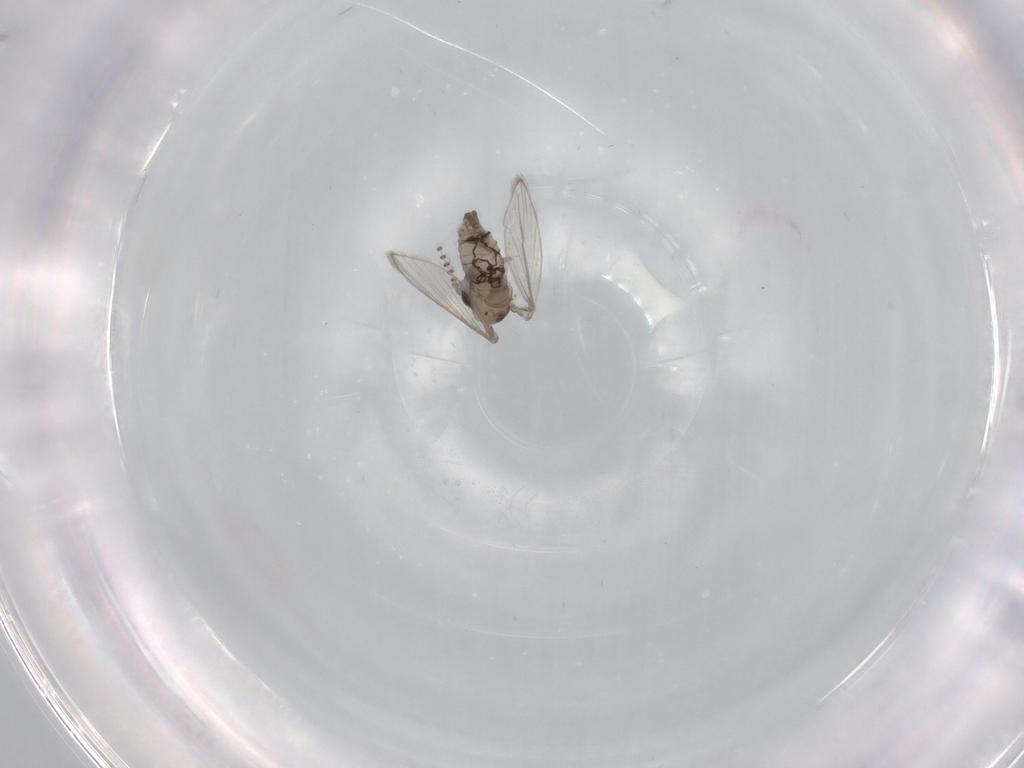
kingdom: Animalia
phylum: Arthropoda
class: Insecta
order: Diptera
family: Psychodidae
